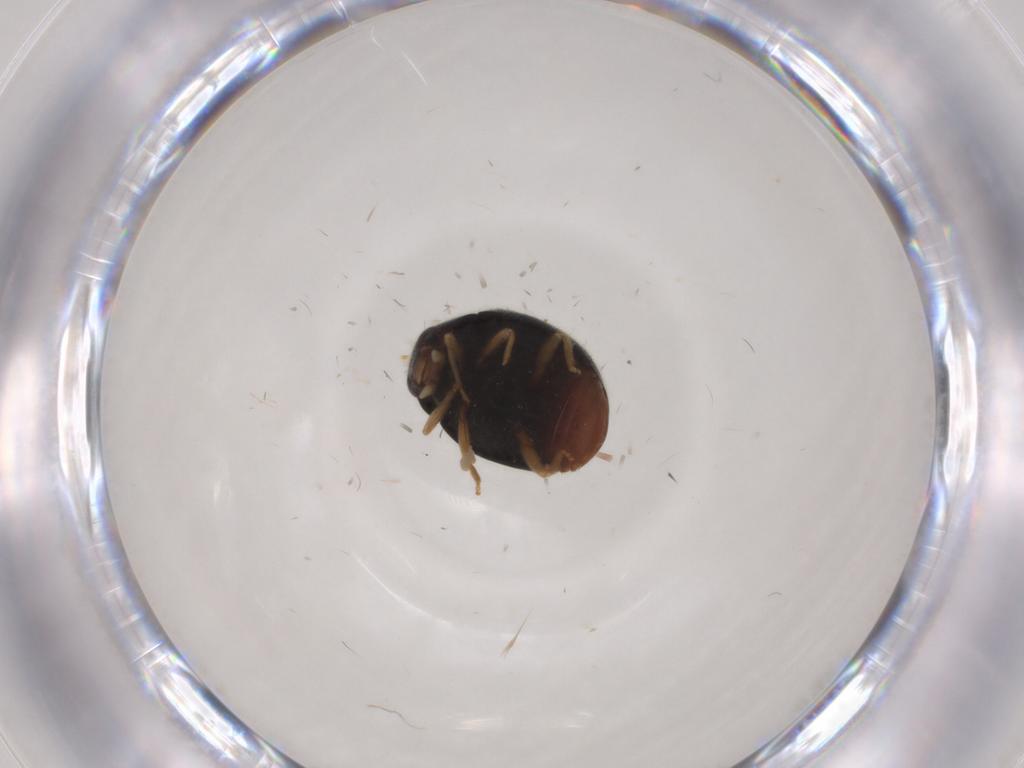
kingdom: Animalia
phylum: Arthropoda
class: Insecta
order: Coleoptera
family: Coccinellidae
